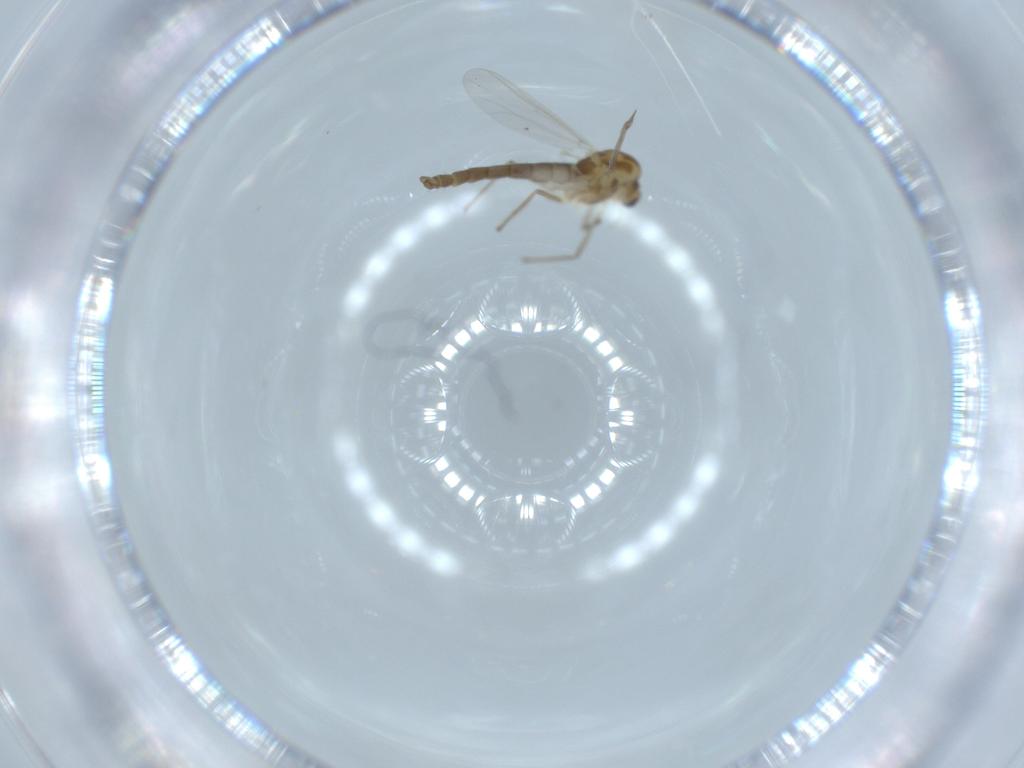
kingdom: Animalia
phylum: Arthropoda
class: Insecta
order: Diptera
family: Chironomidae
